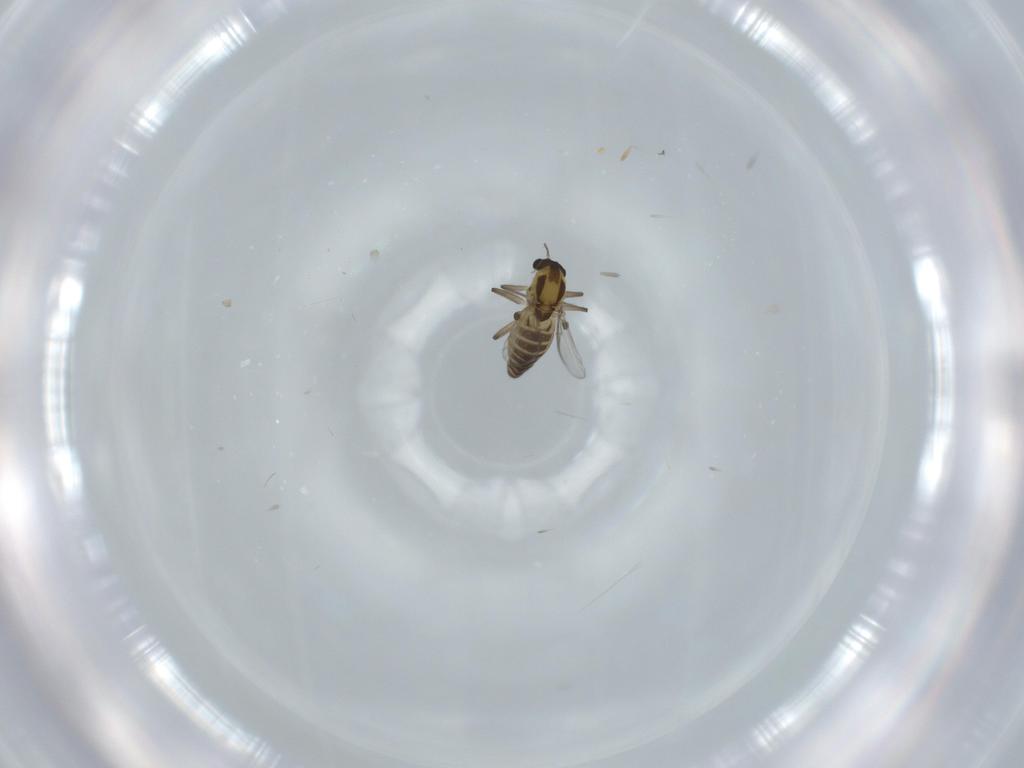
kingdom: Animalia
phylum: Arthropoda
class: Insecta
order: Diptera
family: Chironomidae
